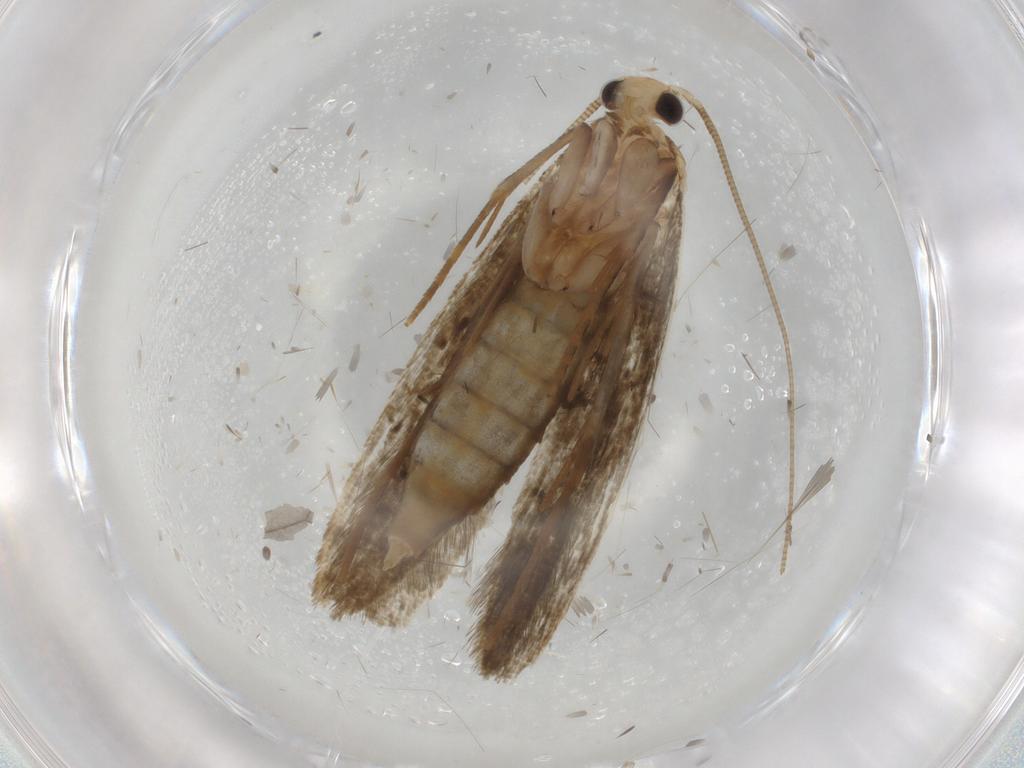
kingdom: Animalia
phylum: Arthropoda
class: Insecta
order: Lepidoptera
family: Noctuidae
